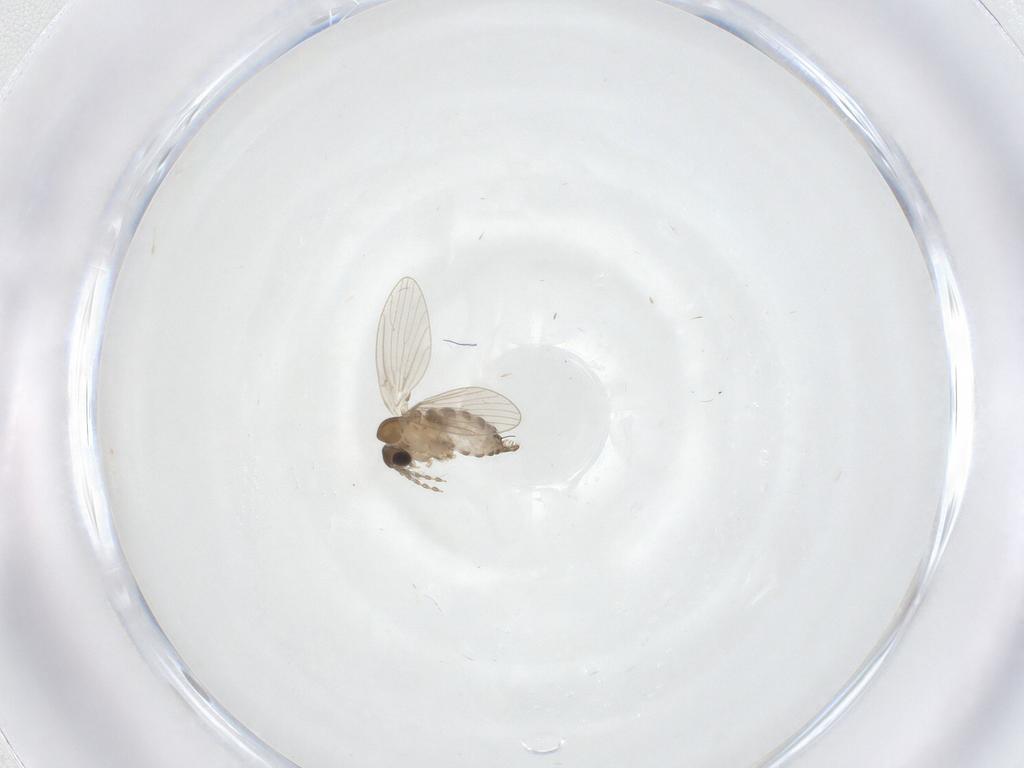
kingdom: Animalia
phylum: Arthropoda
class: Insecta
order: Diptera
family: Psychodidae
